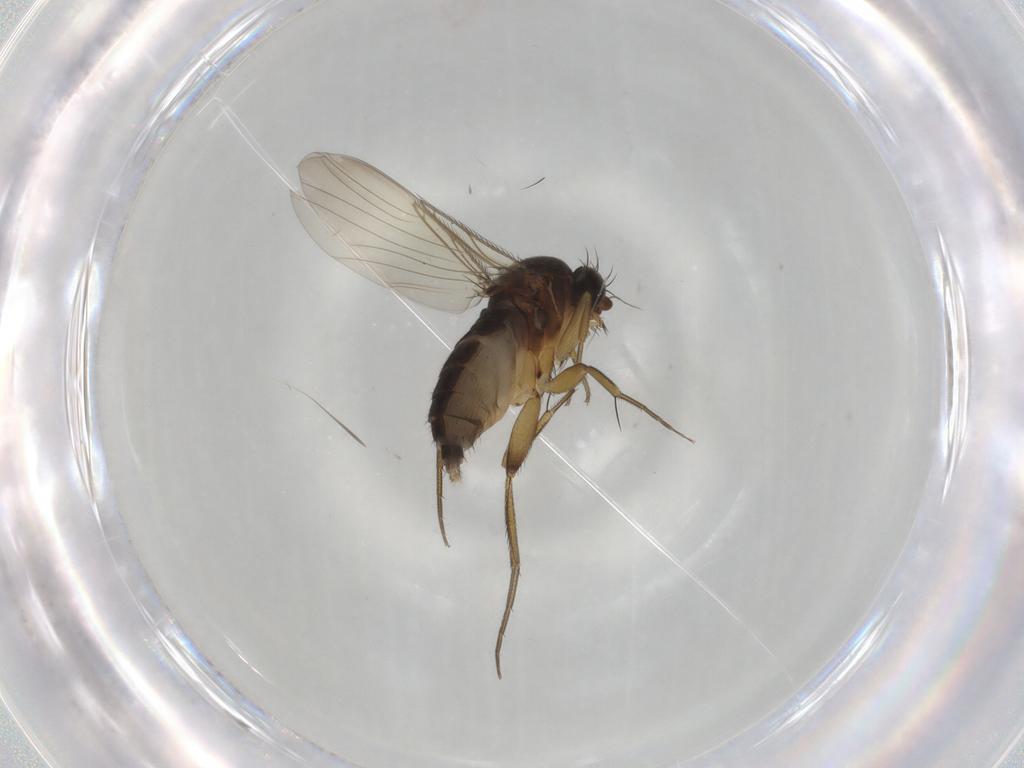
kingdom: Animalia
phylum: Arthropoda
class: Insecta
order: Diptera
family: Phoridae
